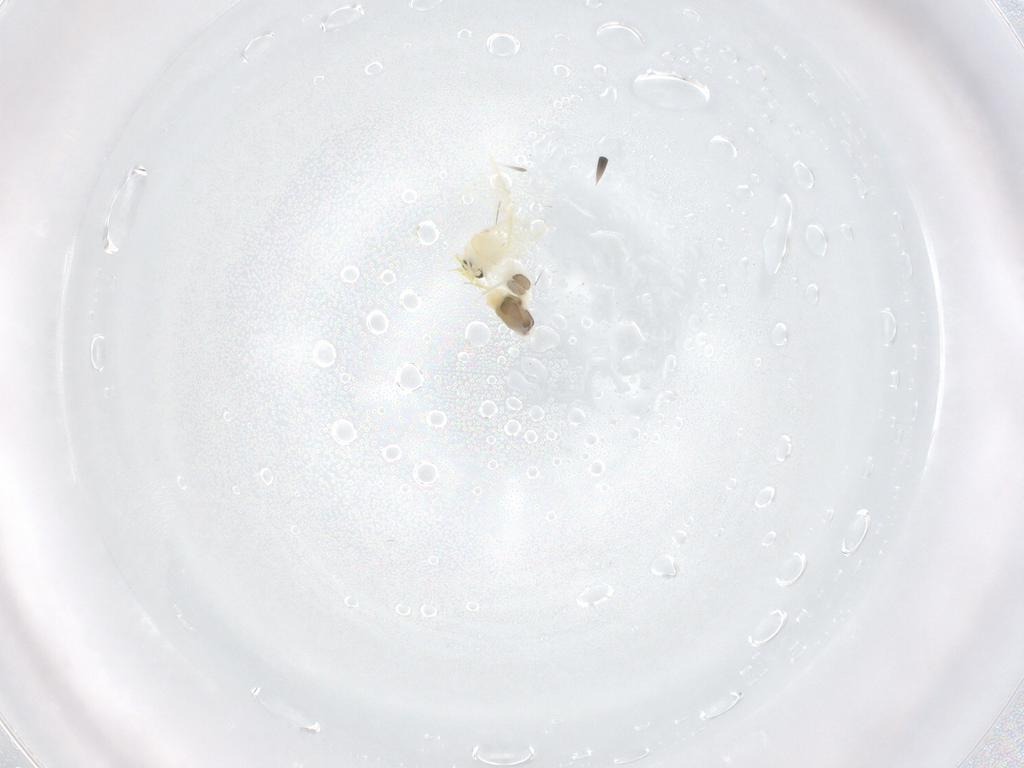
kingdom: Animalia
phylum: Arthropoda
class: Insecta
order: Hemiptera
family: Aleyrodidae
